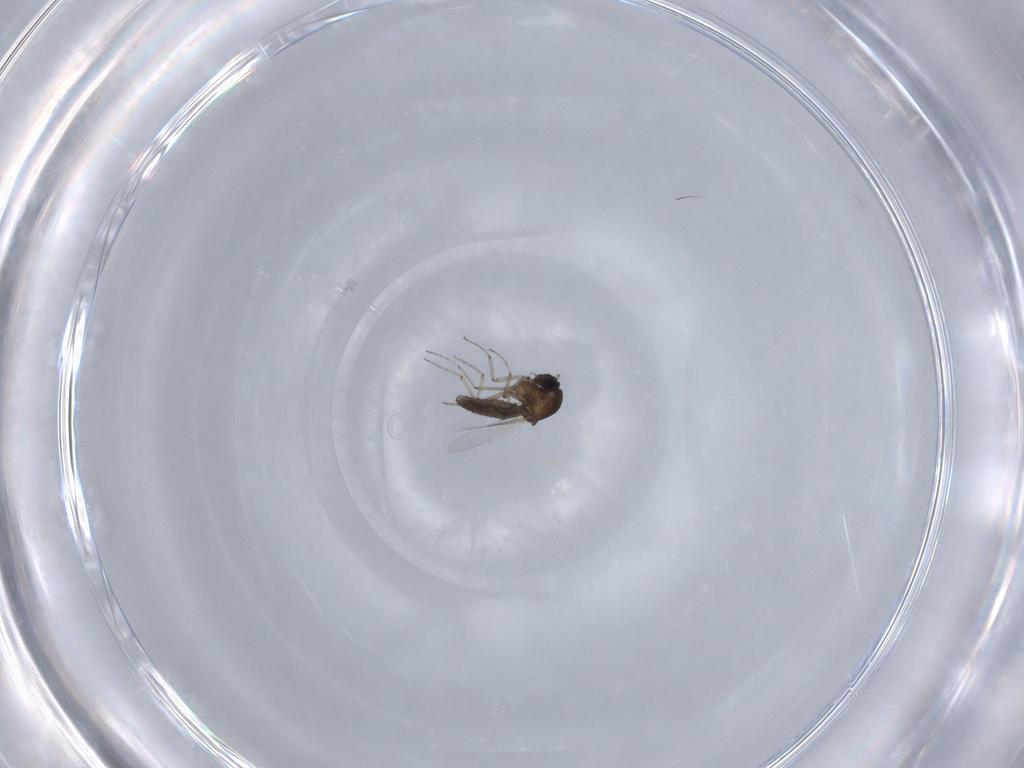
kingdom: Animalia
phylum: Arthropoda
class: Insecta
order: Diptera
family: Ceratopogonidae
